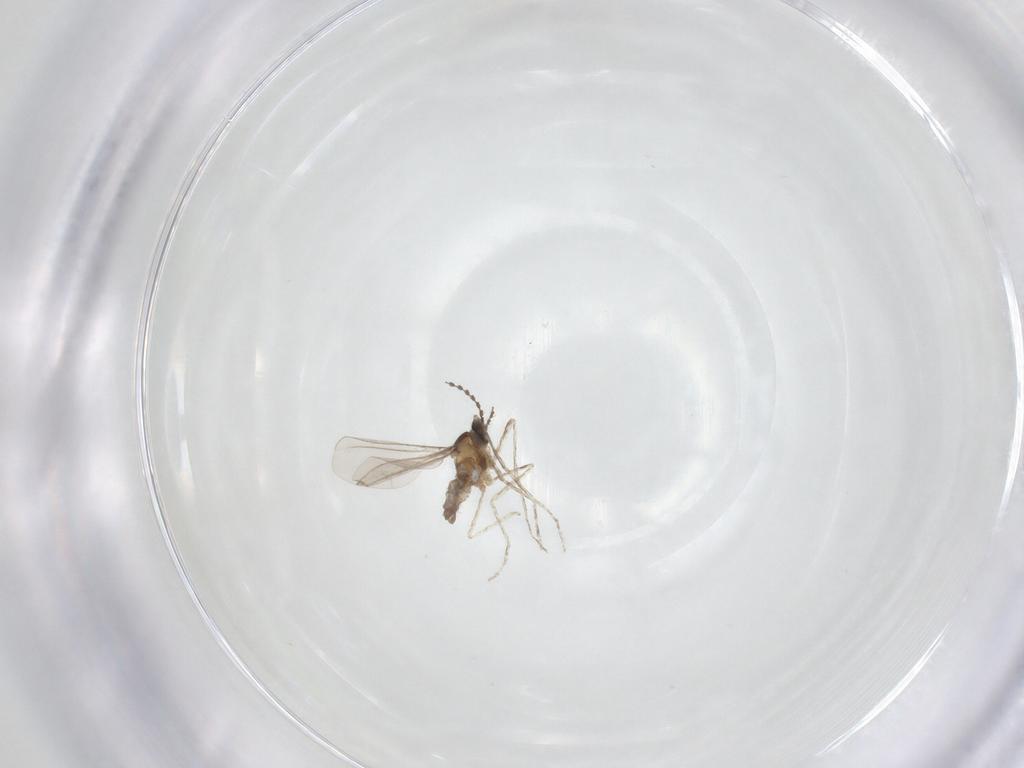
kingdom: Animalia
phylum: Arthropoda
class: Insecta
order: Diptera
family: Cecidomyiidae
